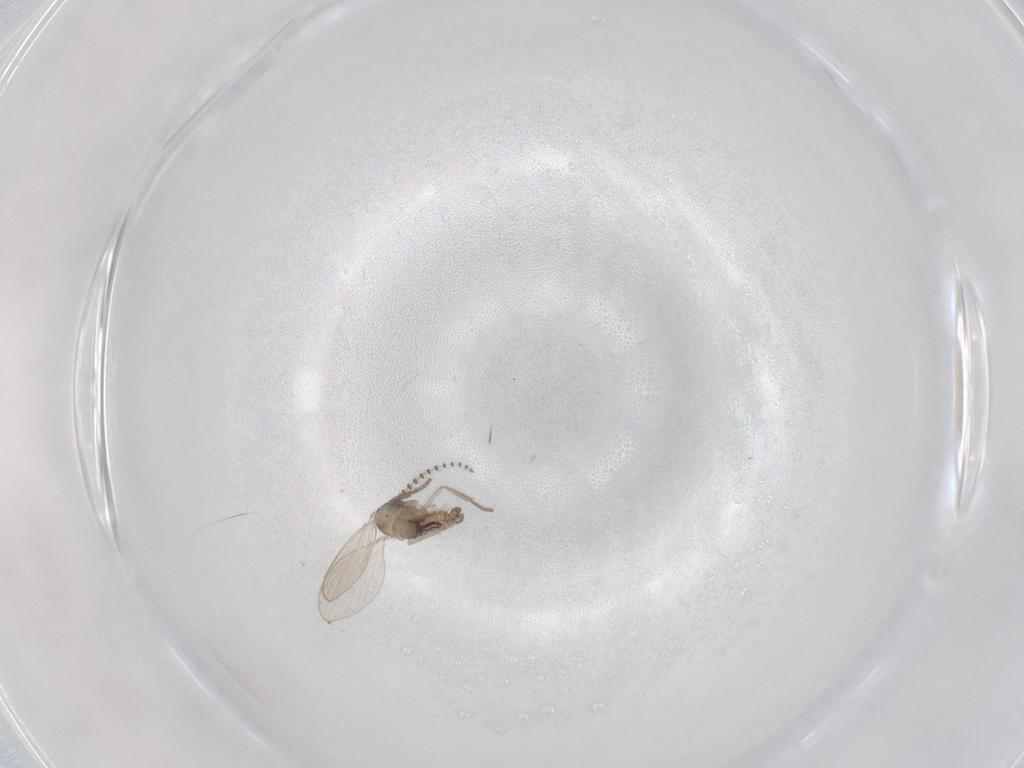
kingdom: Animalia
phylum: Arthropoda
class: Insecta
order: Diptera
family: Psychodidae
